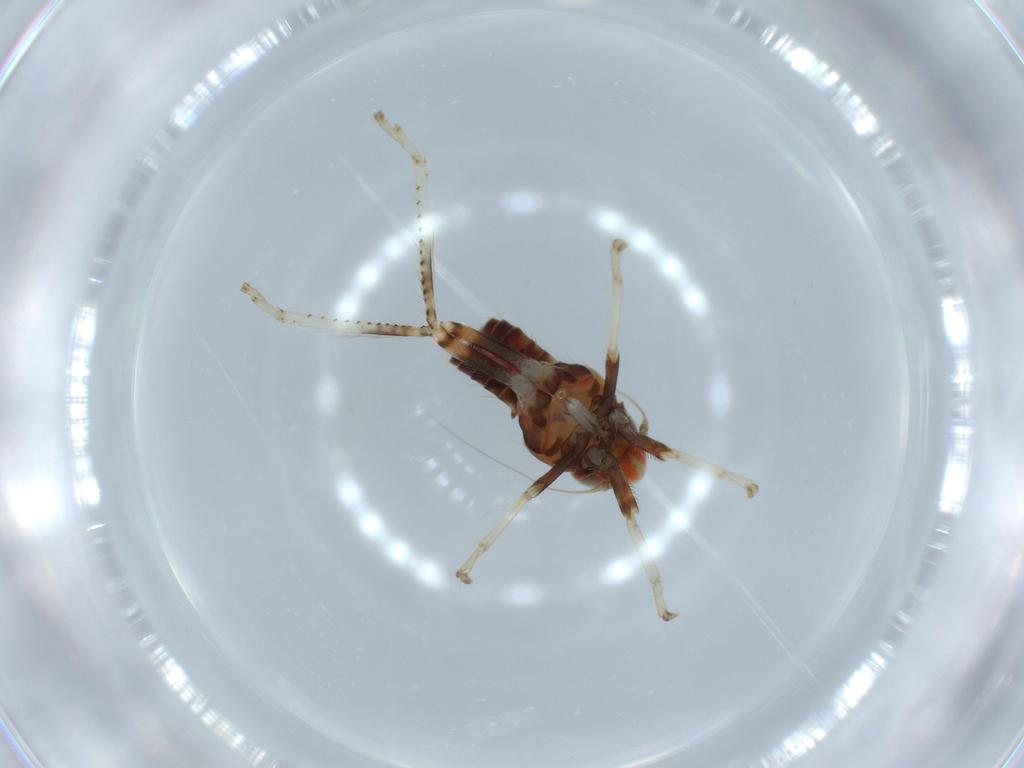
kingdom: Animalia
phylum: Arthropoda
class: Insecta
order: Hemiptera
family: Cicadellidae
